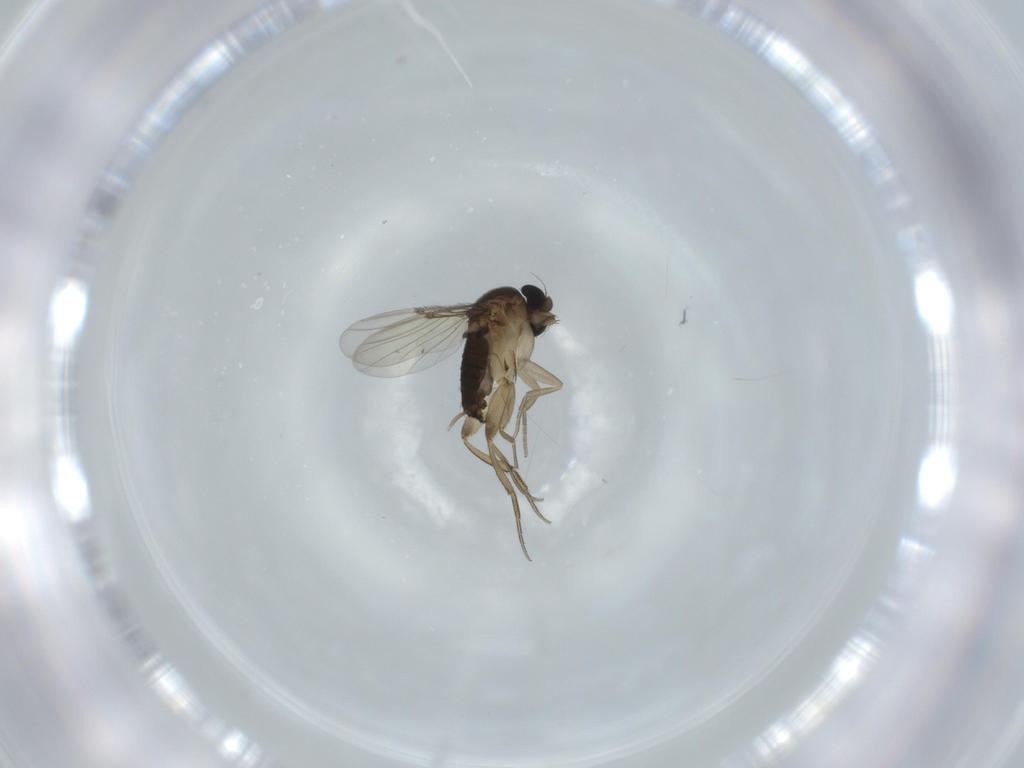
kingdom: Animalia
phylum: Arthropoda
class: Insecta
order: Diptera
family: Phoridae
